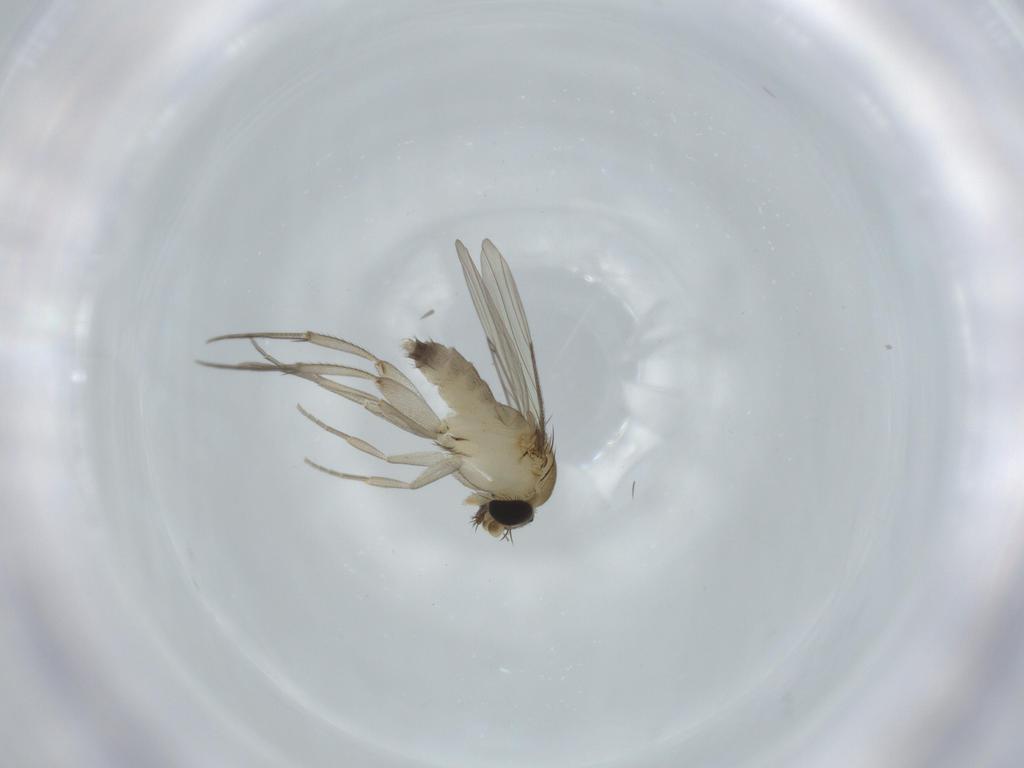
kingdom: Animalia
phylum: Arthropoda
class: Insecta
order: Diptera
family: Phoridae
